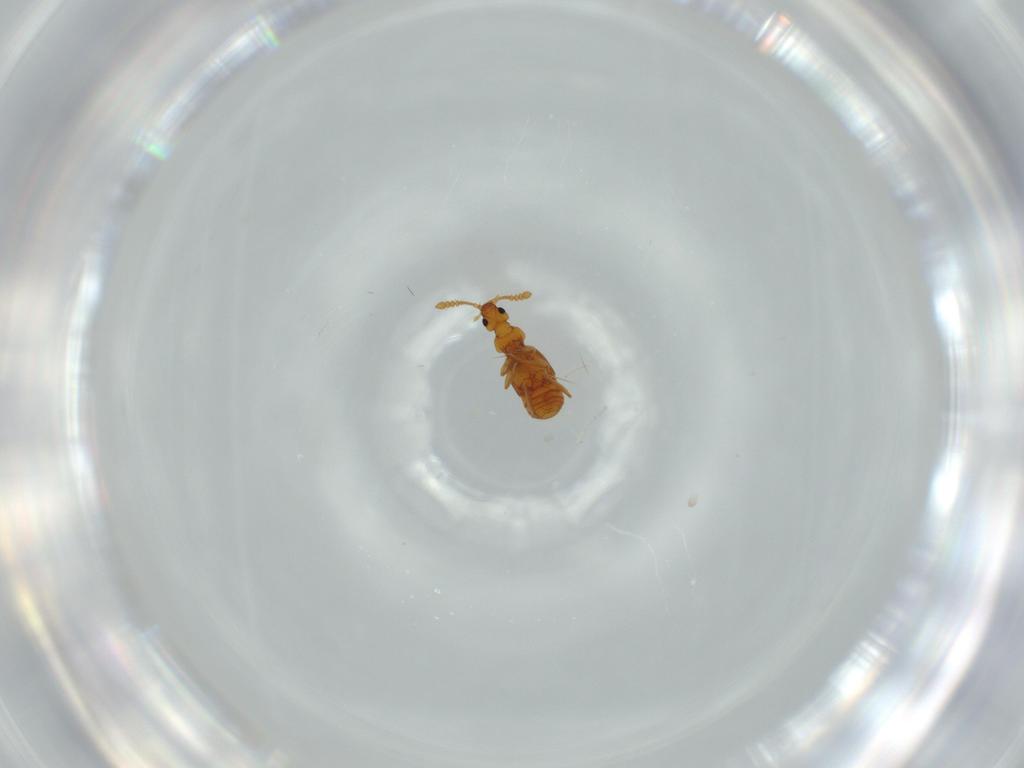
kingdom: Animalia
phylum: Arthropoda
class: Insecta
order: Coleoptera
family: Staphylinidae
